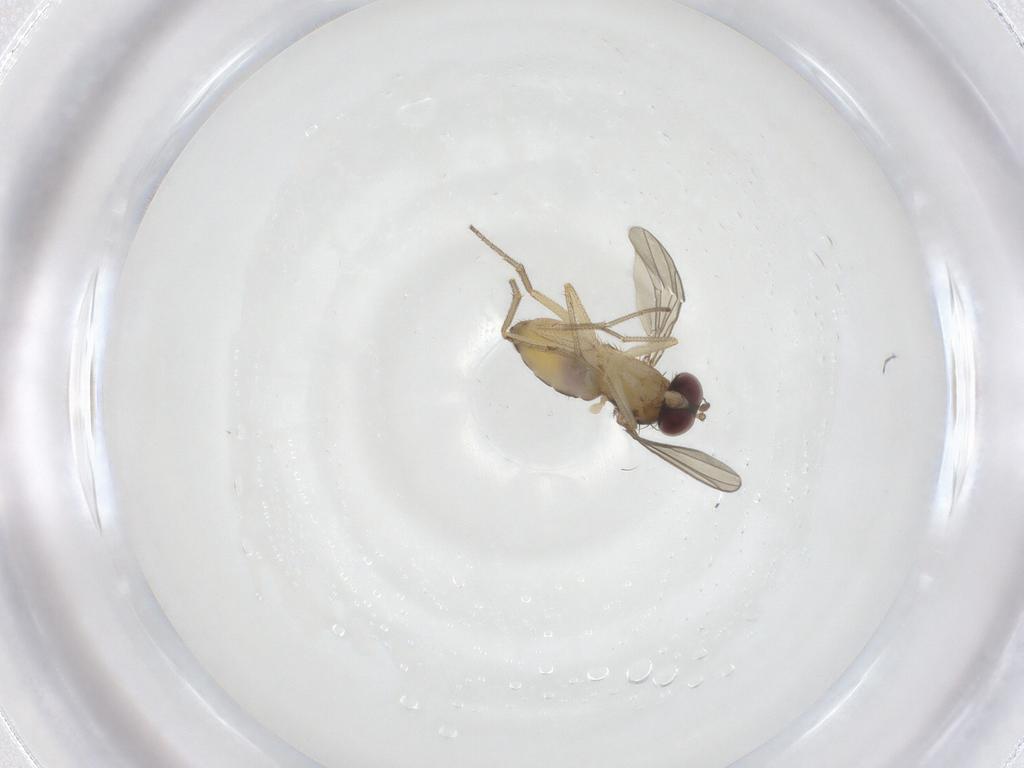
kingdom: Animalia
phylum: Arthropoda
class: Insecta
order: Diptera
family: Dolichopodidae
